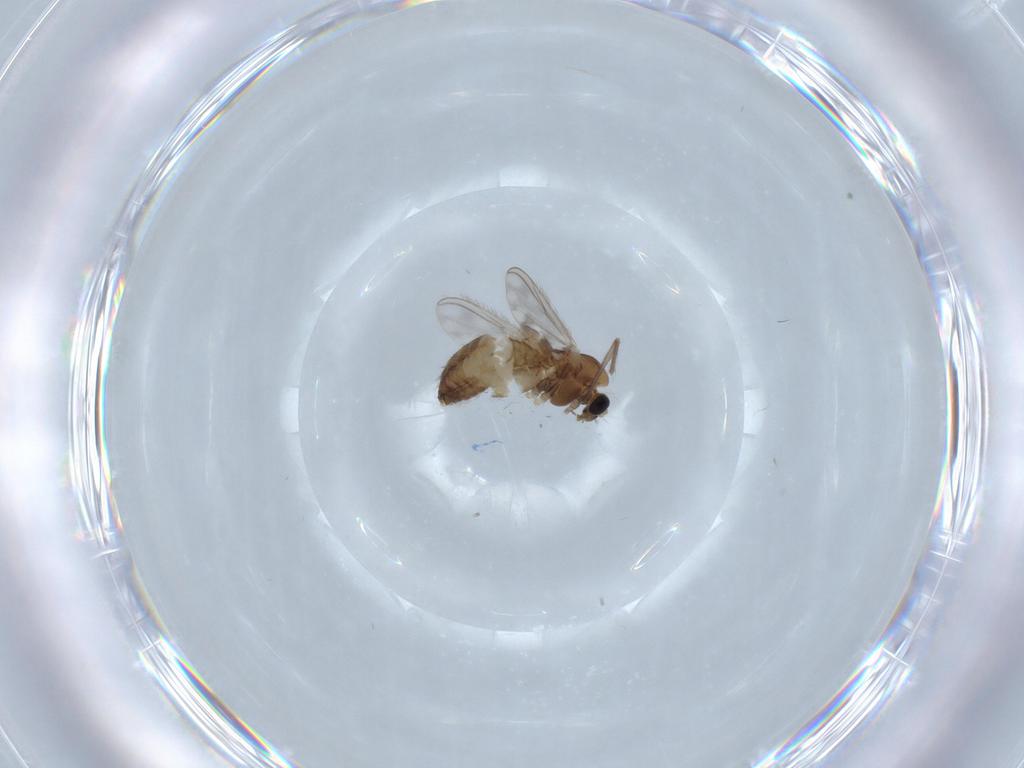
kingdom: Animalia
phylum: Arthropoda
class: Insecta
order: Diptera
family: Chironomidae
